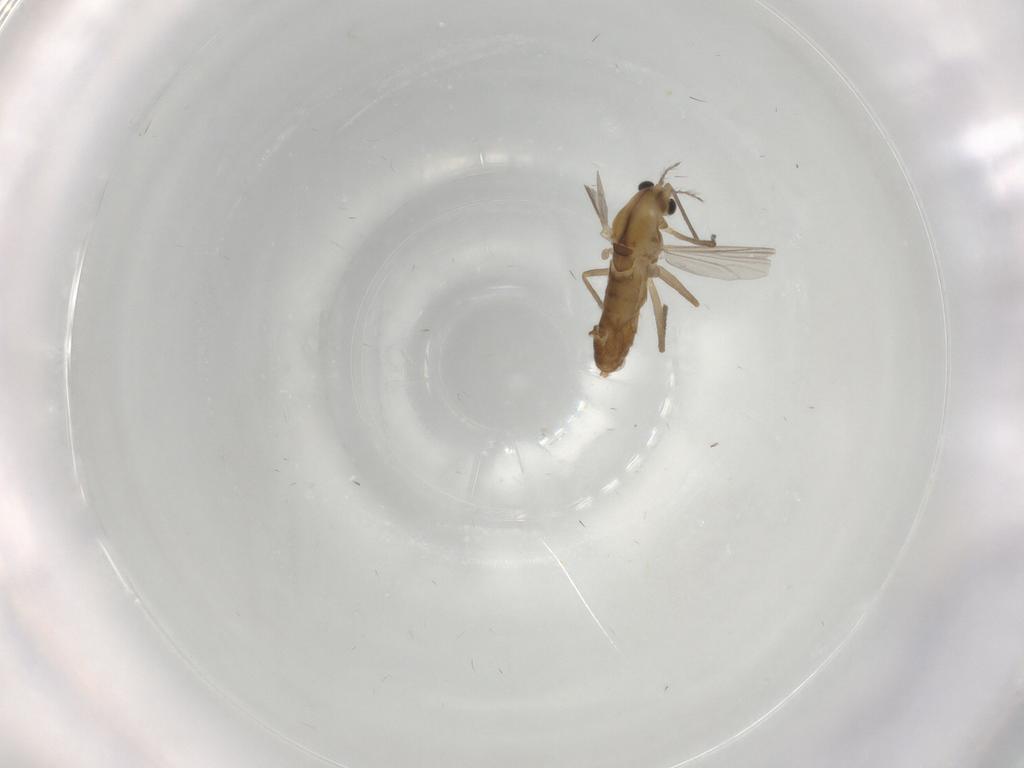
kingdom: Animalia
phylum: Arthropoda
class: Insecta
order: Diptera
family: Chironomidae
